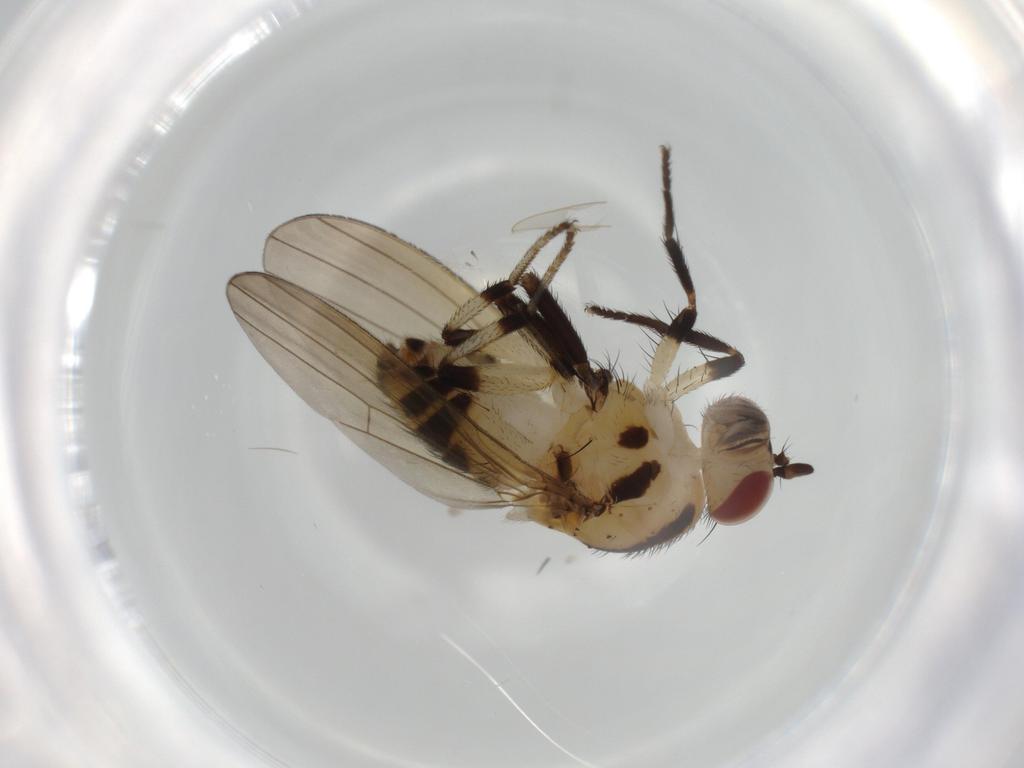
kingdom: Animalia
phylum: Arthropoda
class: Insecta
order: Diptera
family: Lauxaniidae
